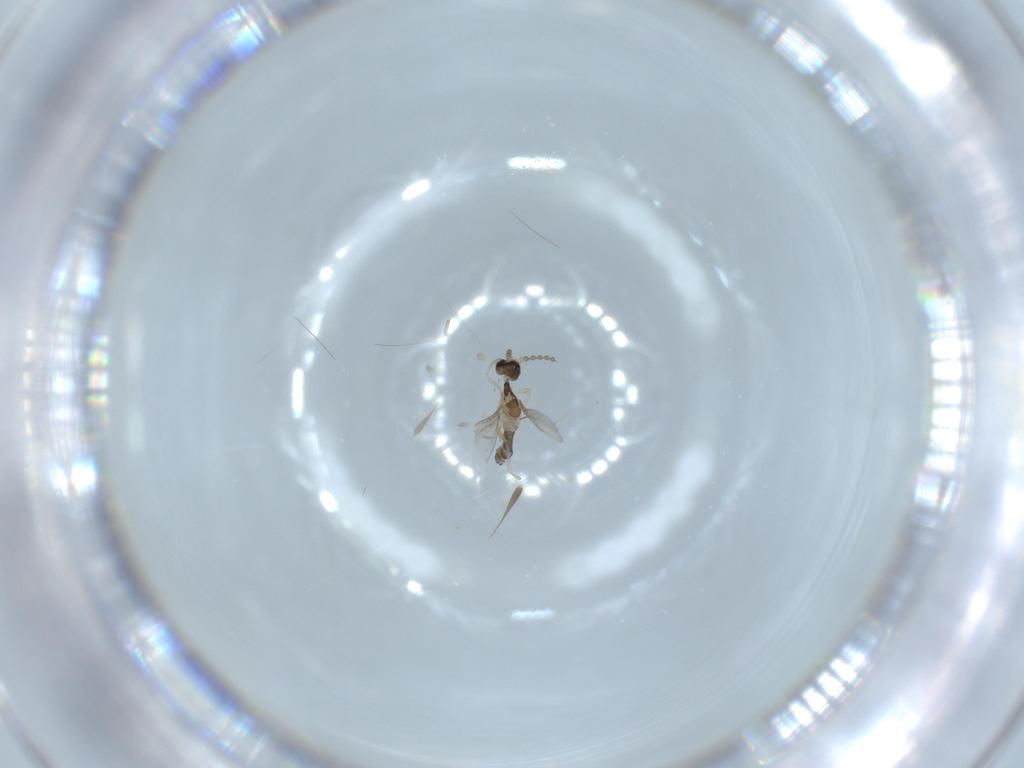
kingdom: Animalia
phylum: Arthropoda
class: Insecta
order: Diptera
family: Cecidomyiidae
